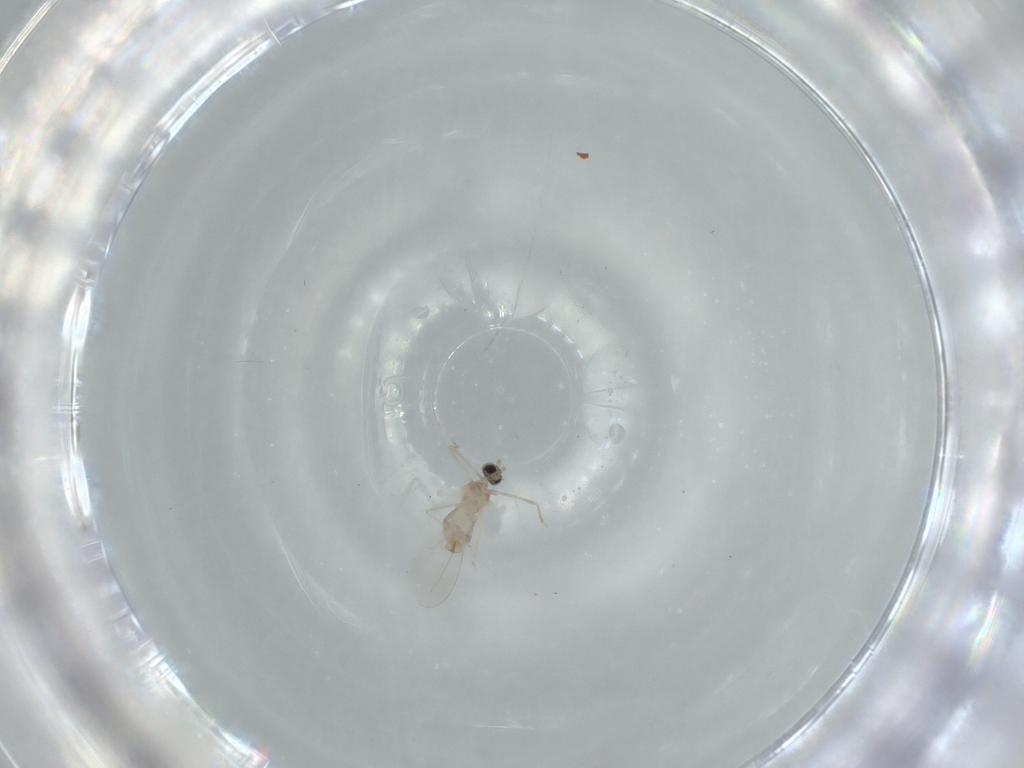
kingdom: Animalia
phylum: Arthropoda
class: Insecta
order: Diptera
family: Cecidomyiidae
